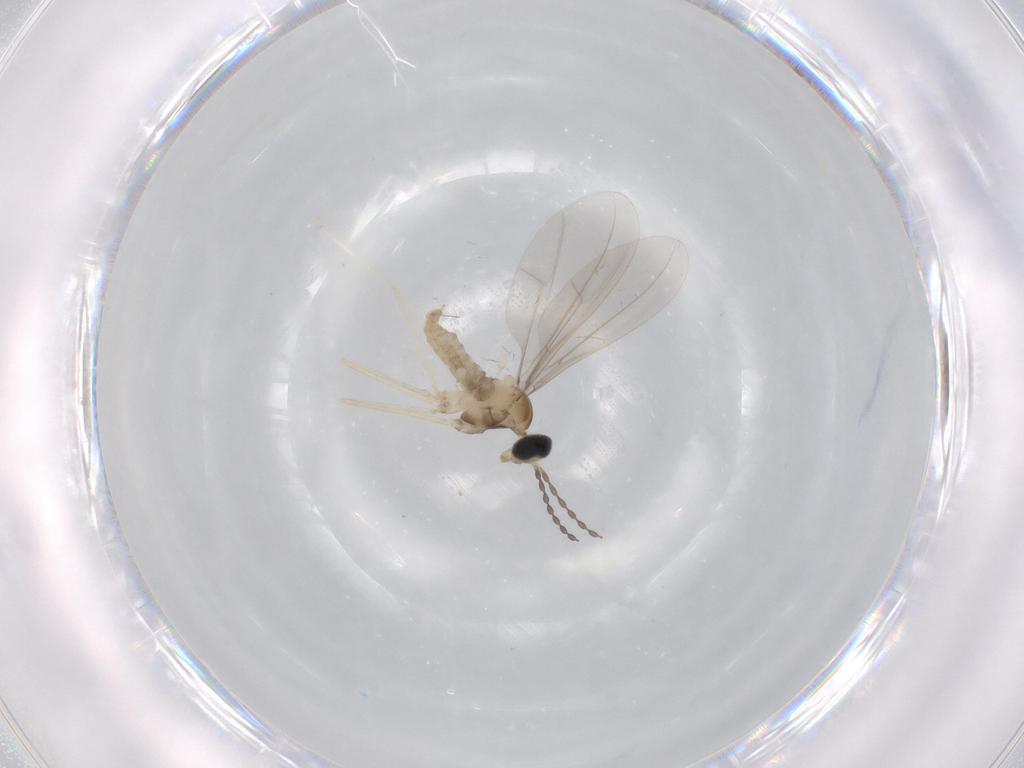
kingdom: Animalia
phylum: Arthropoda
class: Insecta
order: Diptera
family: Cecidomyiidae
